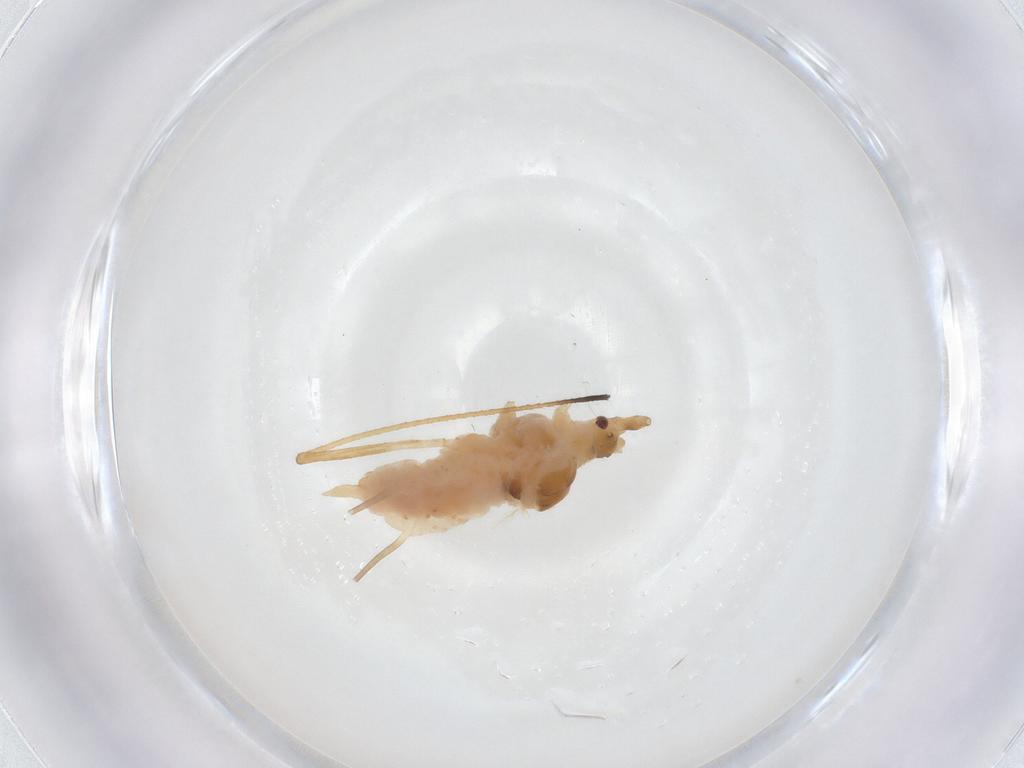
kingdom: Animalia
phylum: Arthropoda
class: Insecta
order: Hemiptera
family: Aphididae
